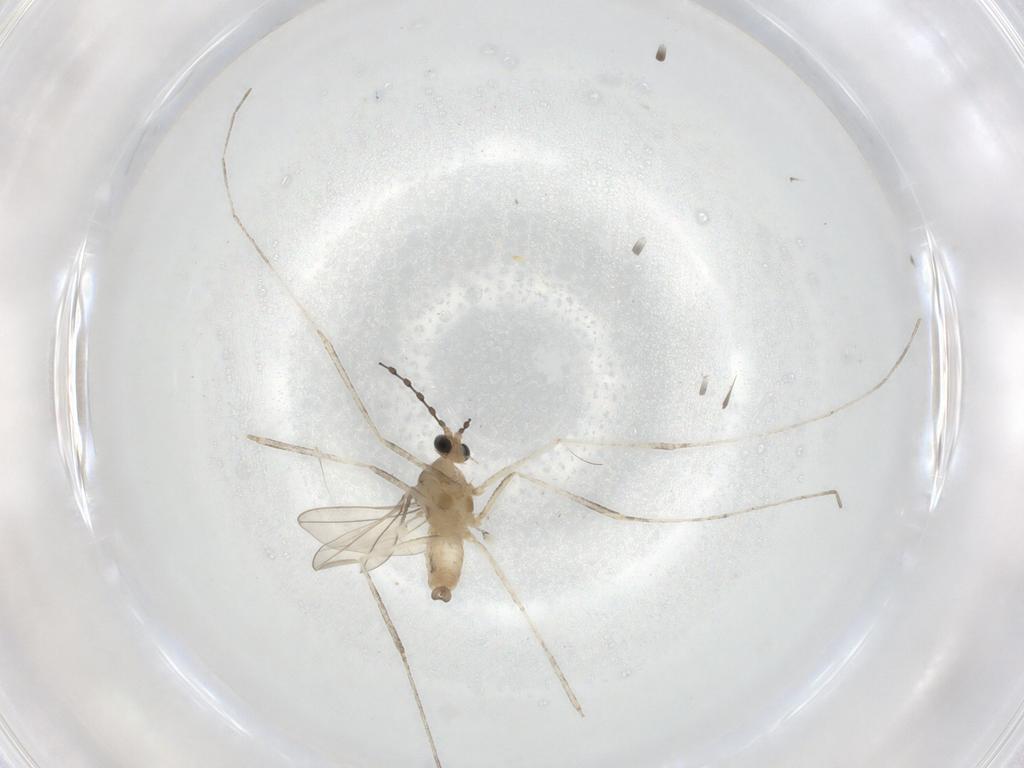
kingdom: Animalia
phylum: Arthropoda
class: Insecta
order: Diptera
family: Cecidomyiidae
